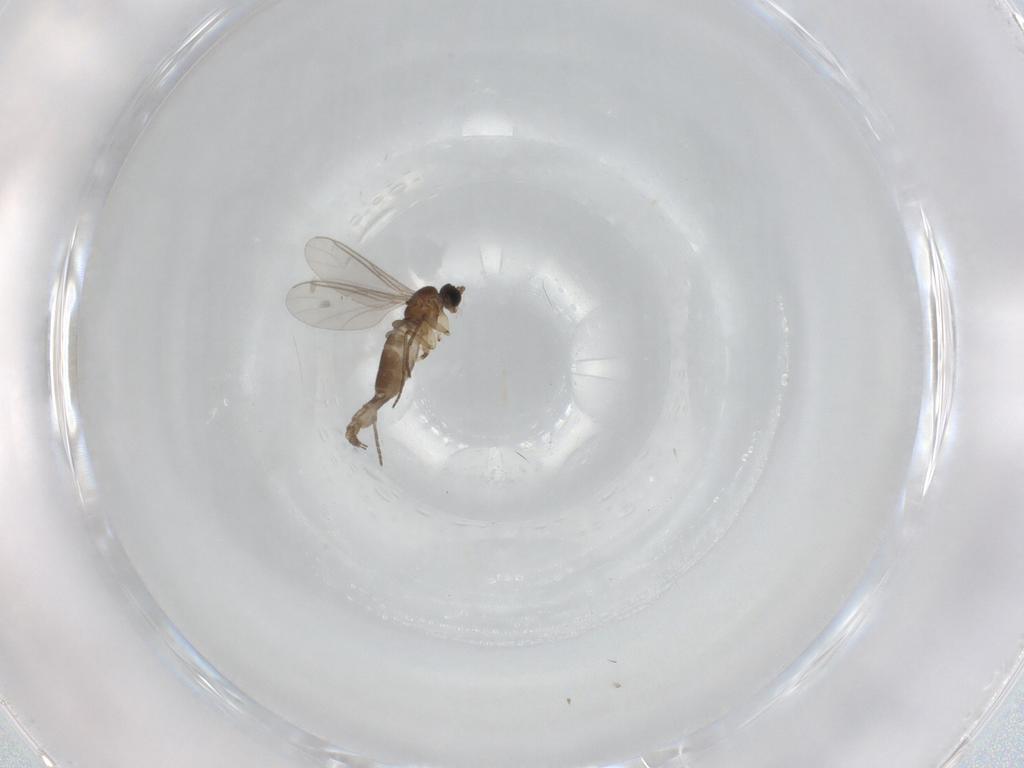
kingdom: Animalia
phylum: Arthropoda
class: Insecta
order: Diptera
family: Sciaridae
